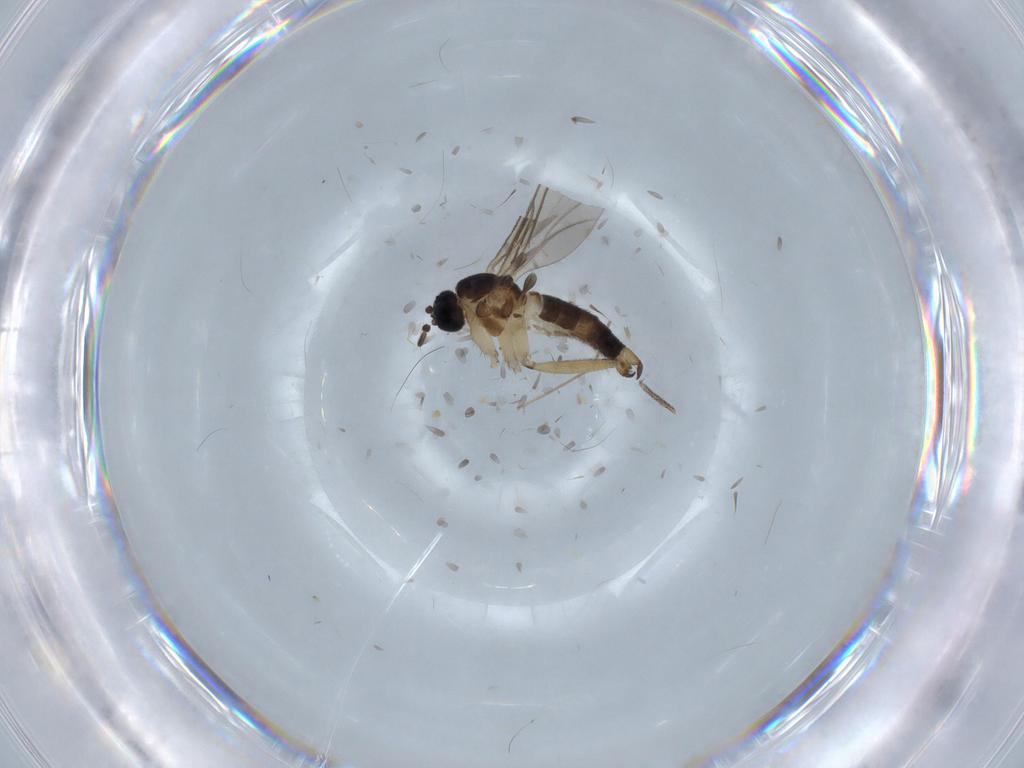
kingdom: Animalia
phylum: Arthropoda
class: Insecta
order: Diptera
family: Sciaridae
